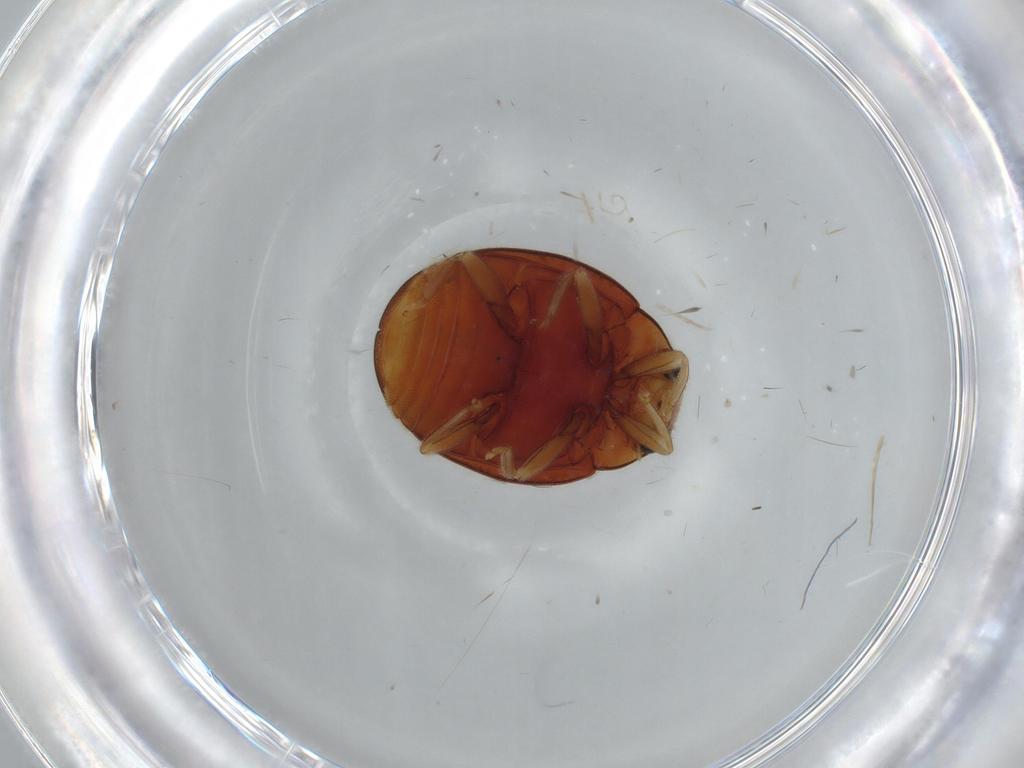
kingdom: Animalia
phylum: Arthropoda
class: Insecta
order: Coleoptera
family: Coccinellidae
